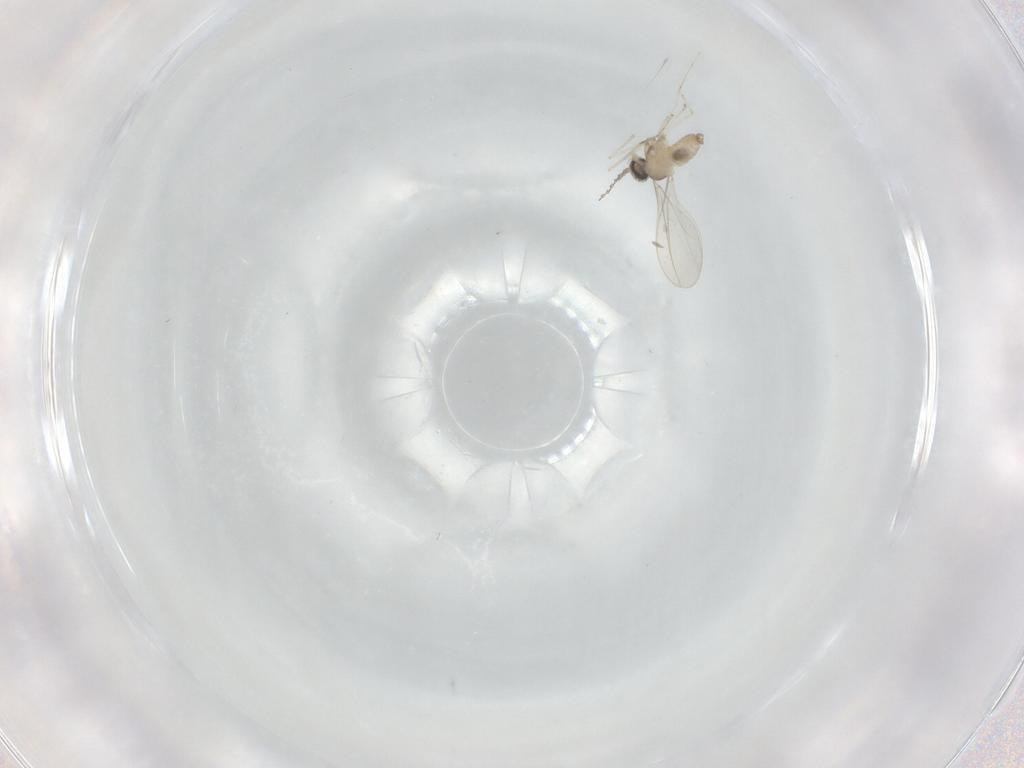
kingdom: Animalia
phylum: Arthropoda
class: Insecta
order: Diptera
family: Cecidomyiidae
